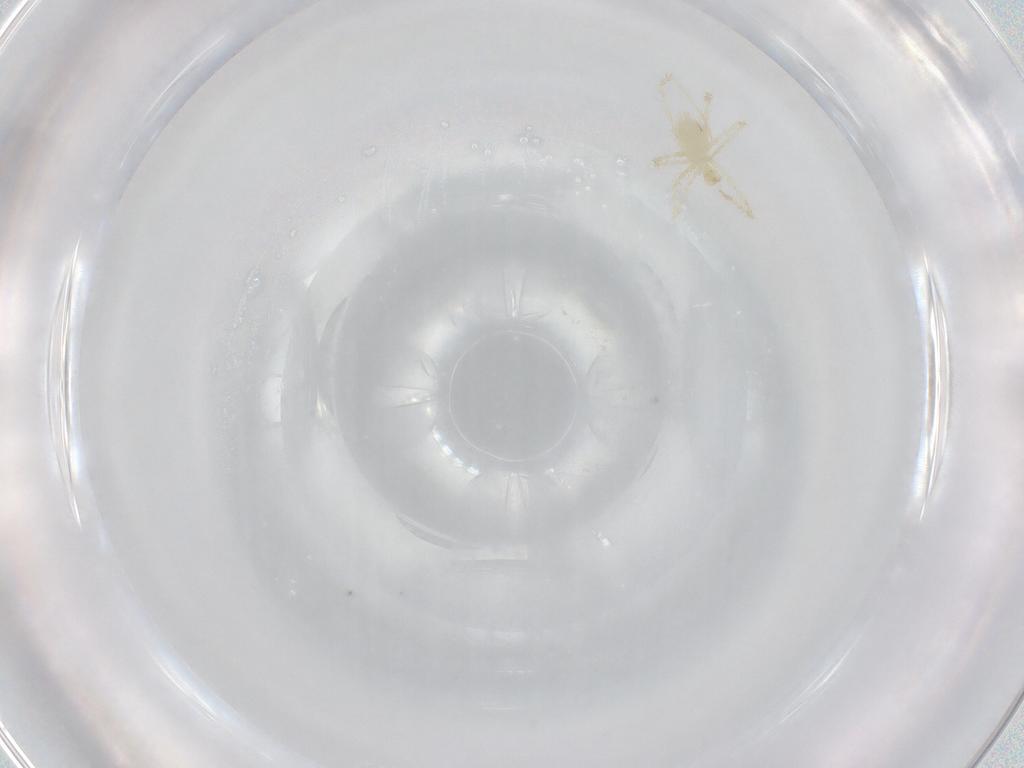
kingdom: Animalia
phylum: Arthropoda
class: Arachnida
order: Trombidiformes
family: Erythraeidae
